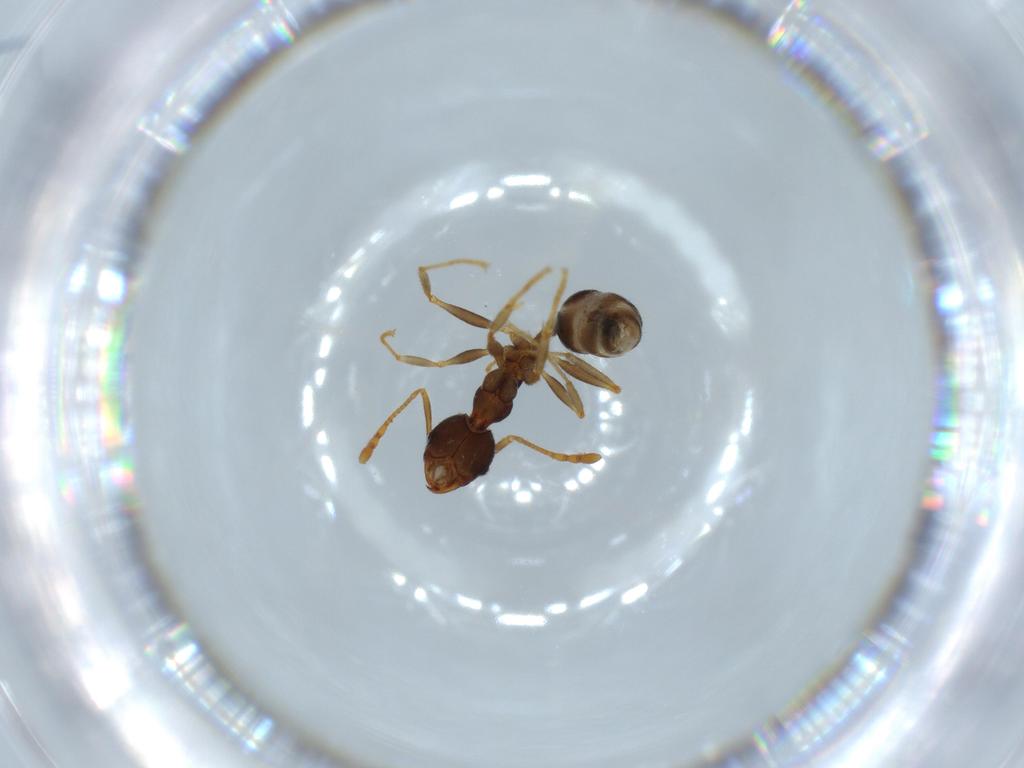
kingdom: Animalia
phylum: Arthropoda
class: Insecta
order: Hymenoptera
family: Formicidae
